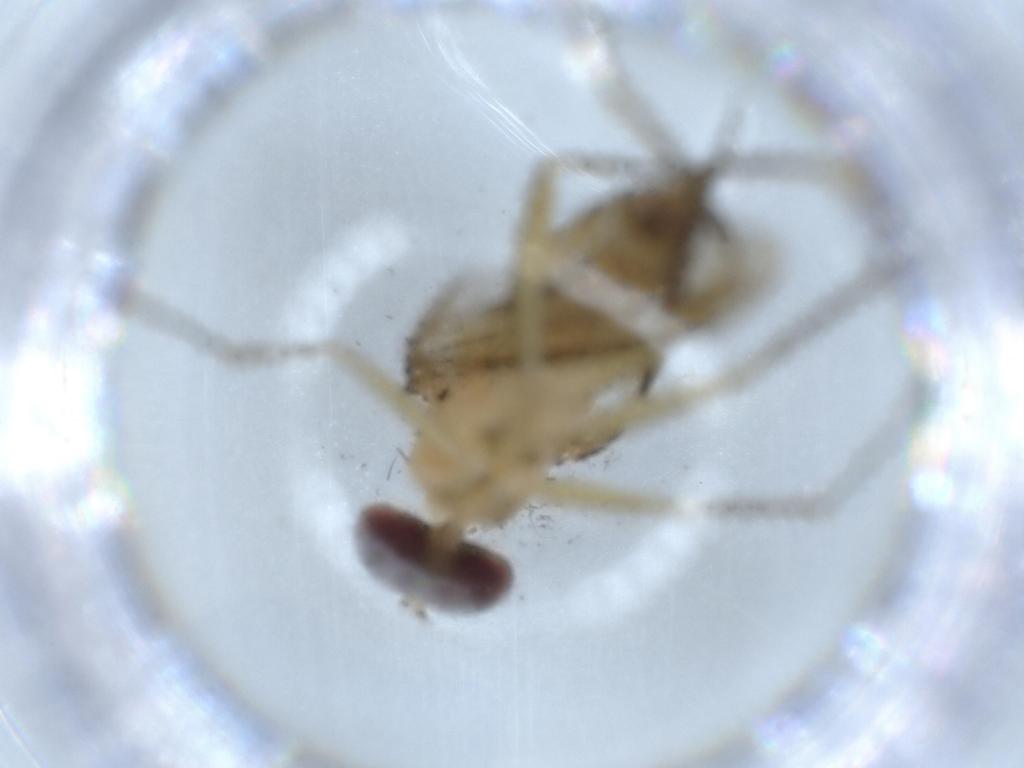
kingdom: Animalia
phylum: Arthropoda
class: Insecta
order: Diptera
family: Dolichopodidae
